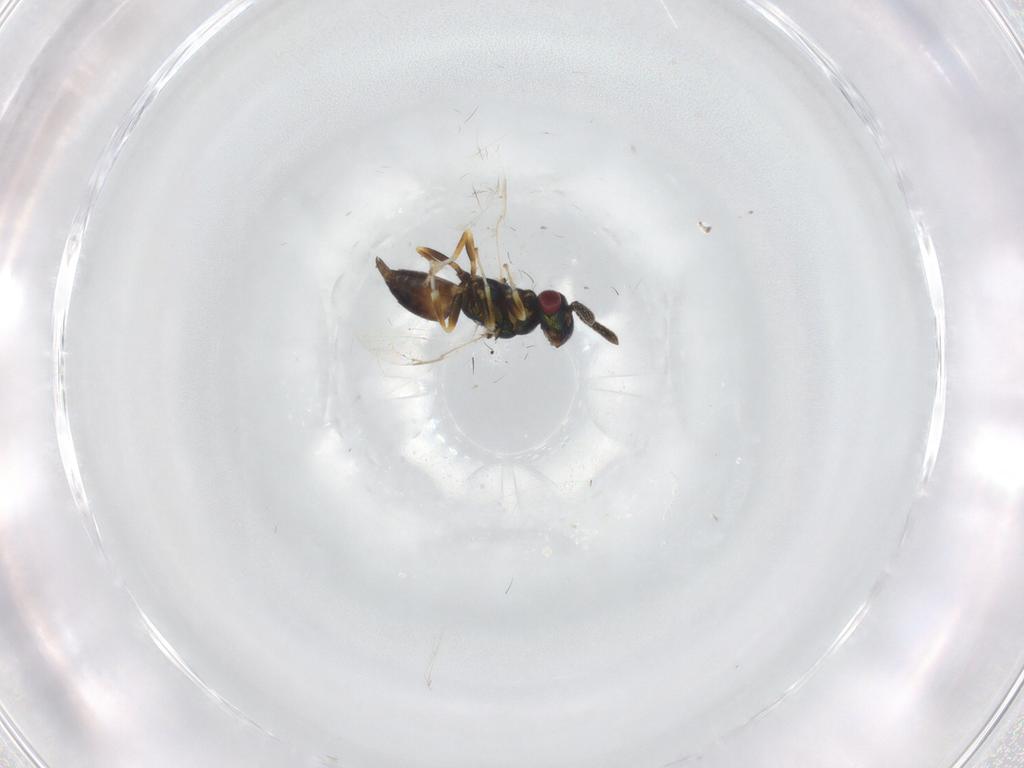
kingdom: Animalia
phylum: Arthropoda
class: Insecta
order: Hymenoptera
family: Torymidae
